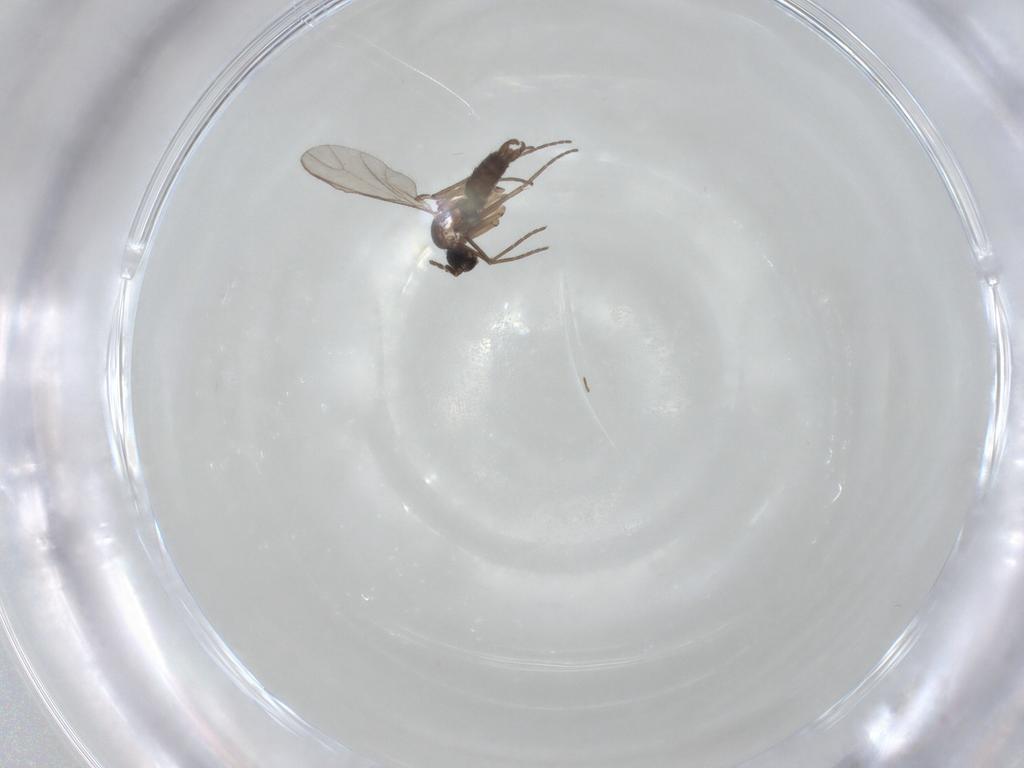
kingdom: Animalia
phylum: Arthropoda
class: Insecta
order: Diptera
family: Sciaridae
